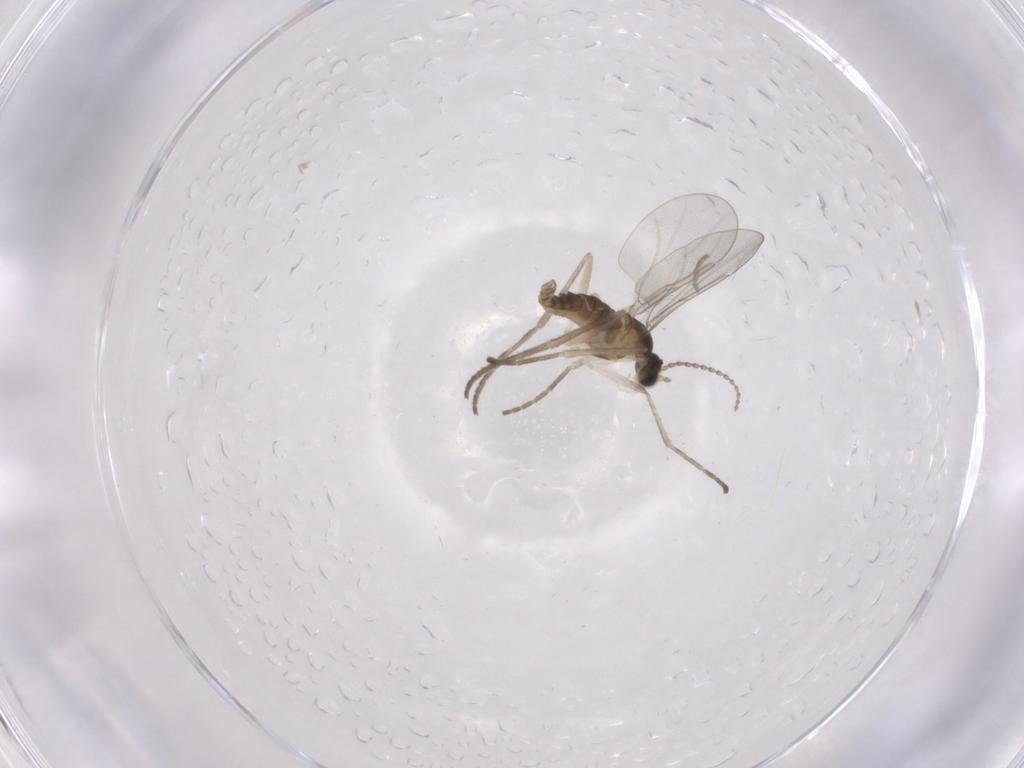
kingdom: Animalia
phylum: Arthropoda
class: Insecta
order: Diptera
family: Cecidomyiidae
